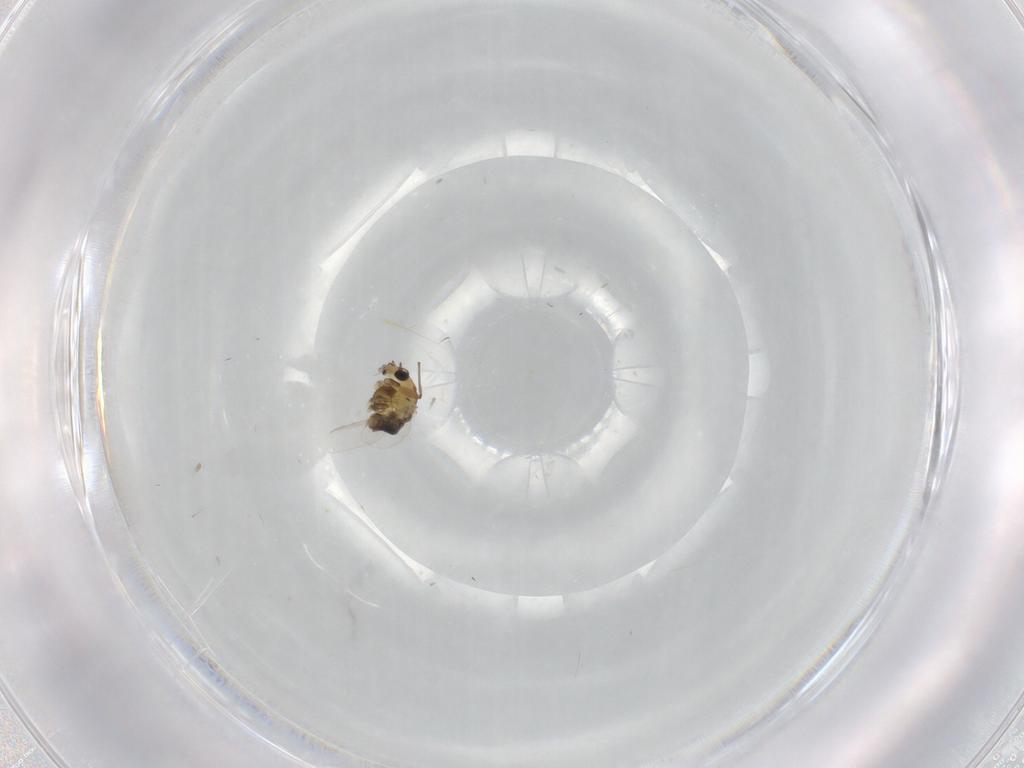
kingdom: Animalia
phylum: Arthropoda
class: Insecta
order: Diptera
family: Chironomidae
